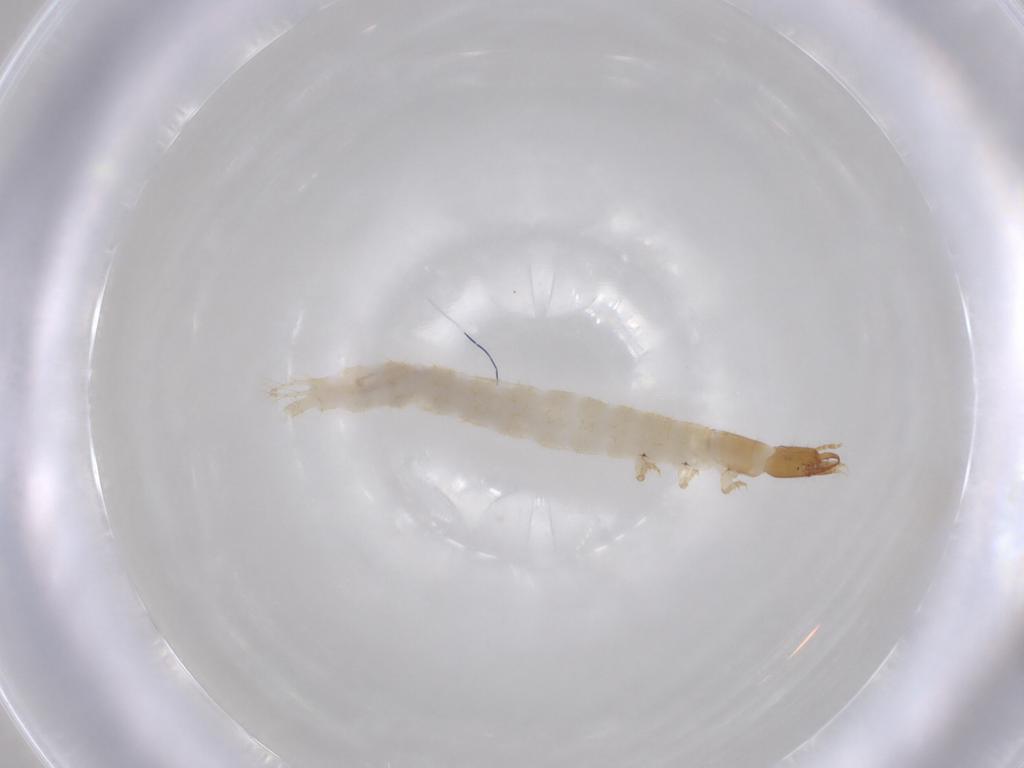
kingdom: Animalia
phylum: Arthropoda
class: Insecta
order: Coleoptera
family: Carabidae
